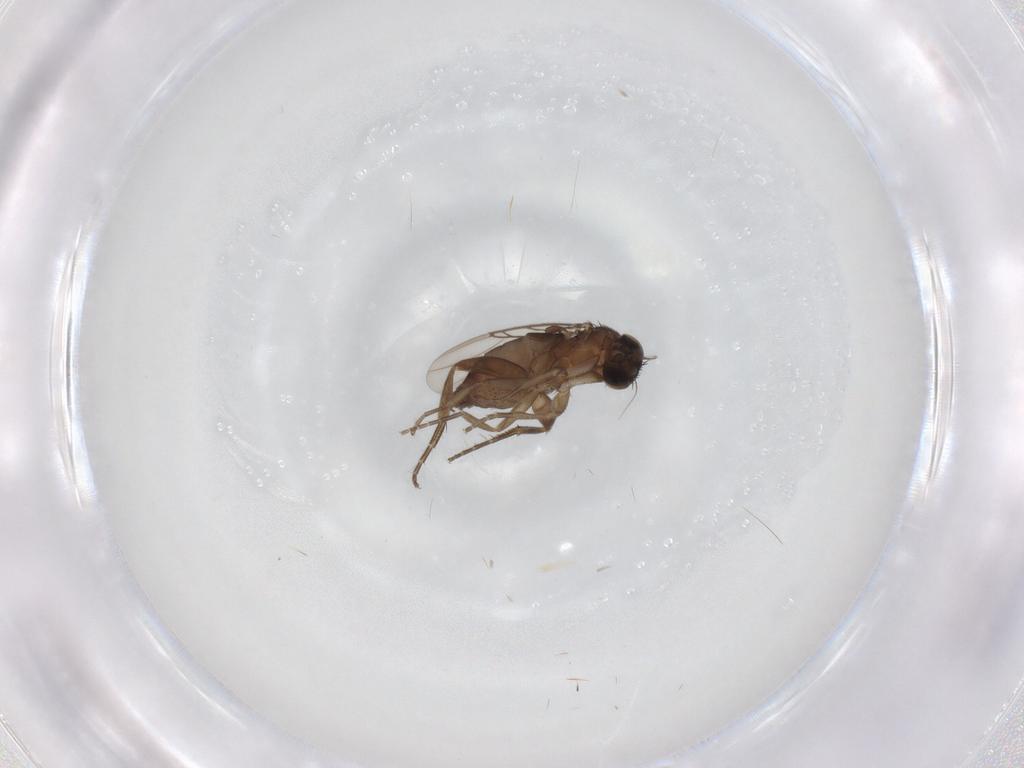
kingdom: Animalia
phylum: Arthropoda
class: Insecta
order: Diptera
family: Phoridae
